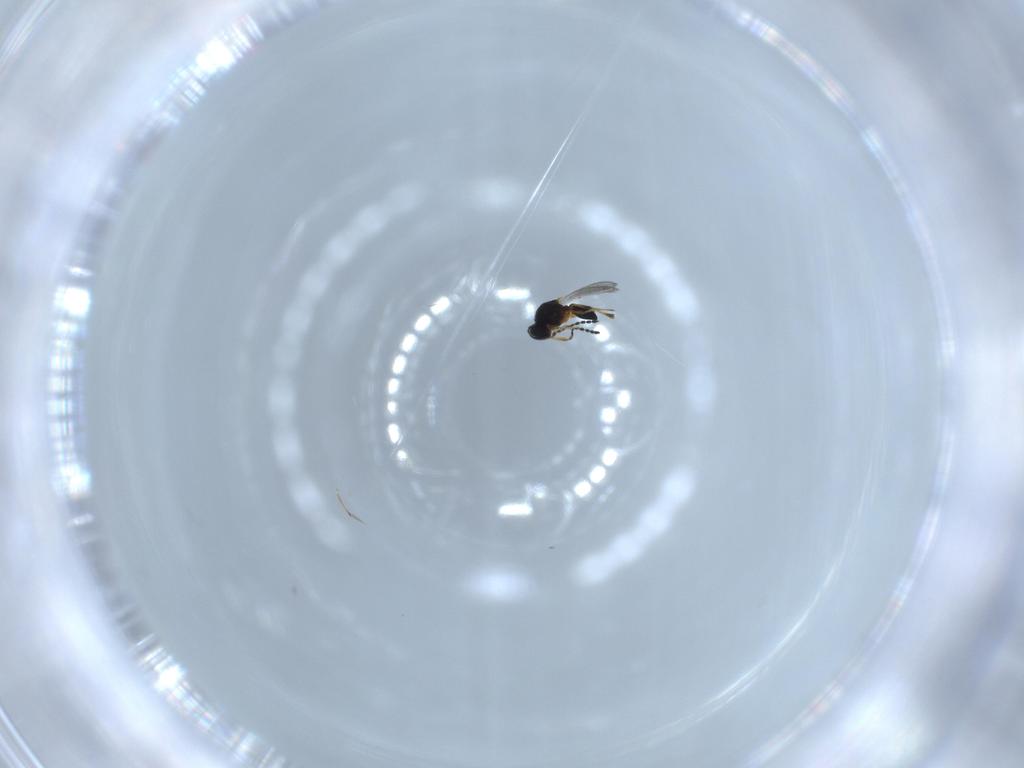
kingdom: Animalia
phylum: Arthropoda
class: Insecta
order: Hymenoptera
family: Platygastridae
